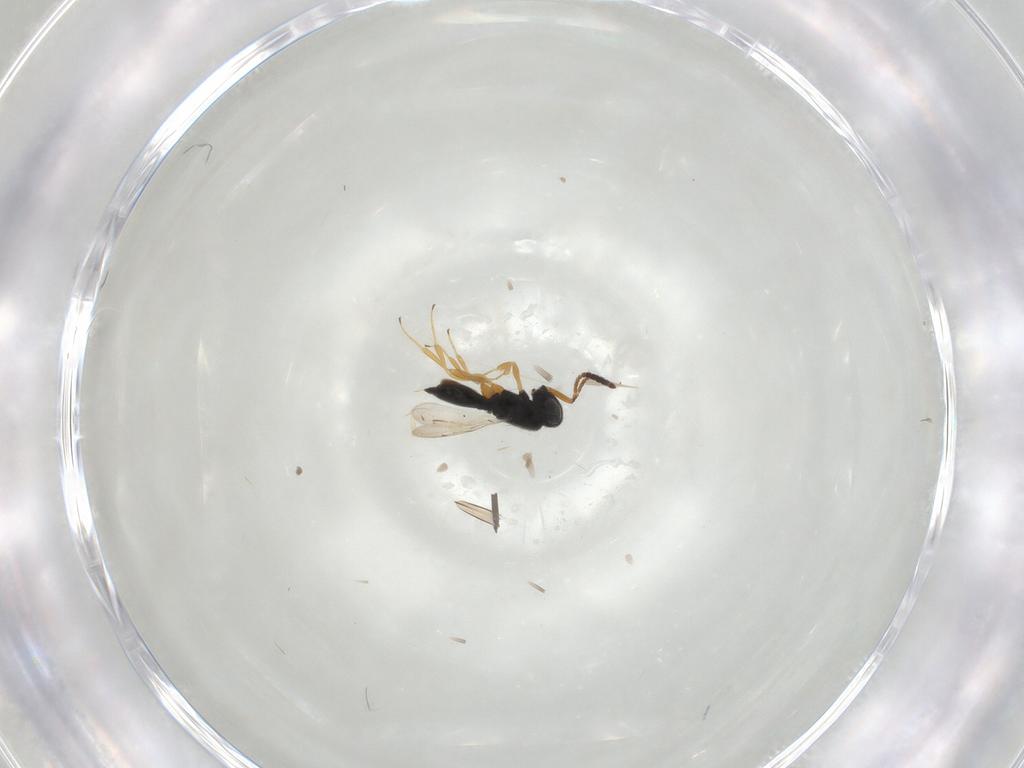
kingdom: Animalia
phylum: Arthropoda
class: Insecta
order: Hymenoptera
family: Scelionidae
